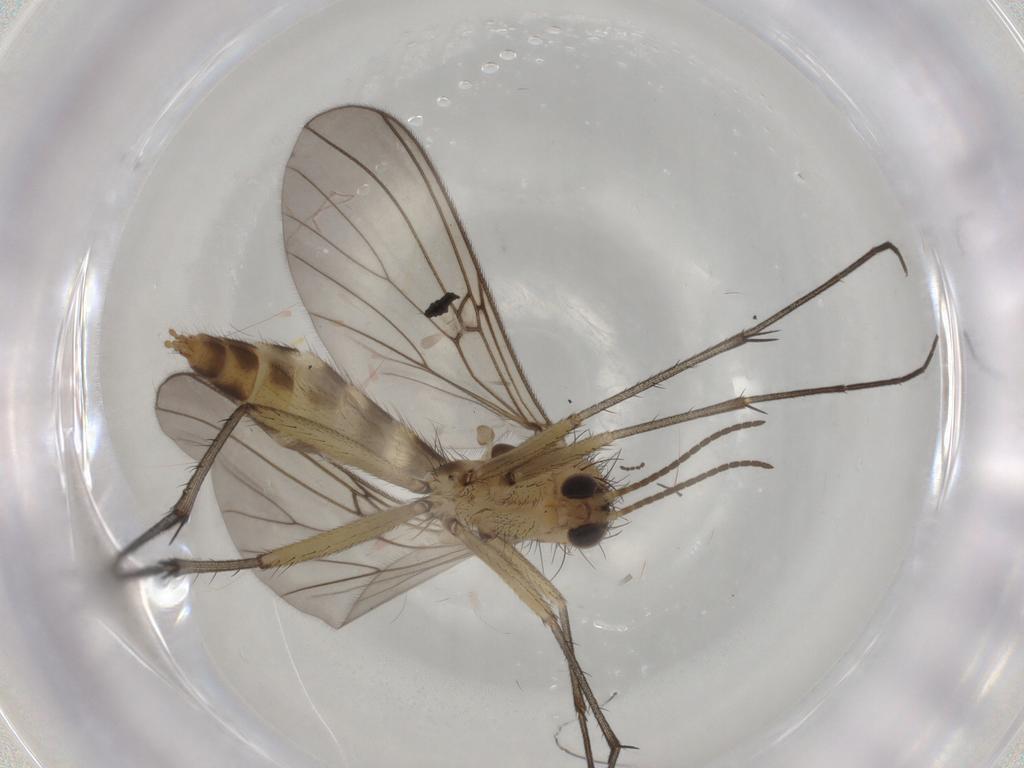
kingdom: Animalia
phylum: Arthropoda
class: Insecta
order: Diptera
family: Mycetophilidae
